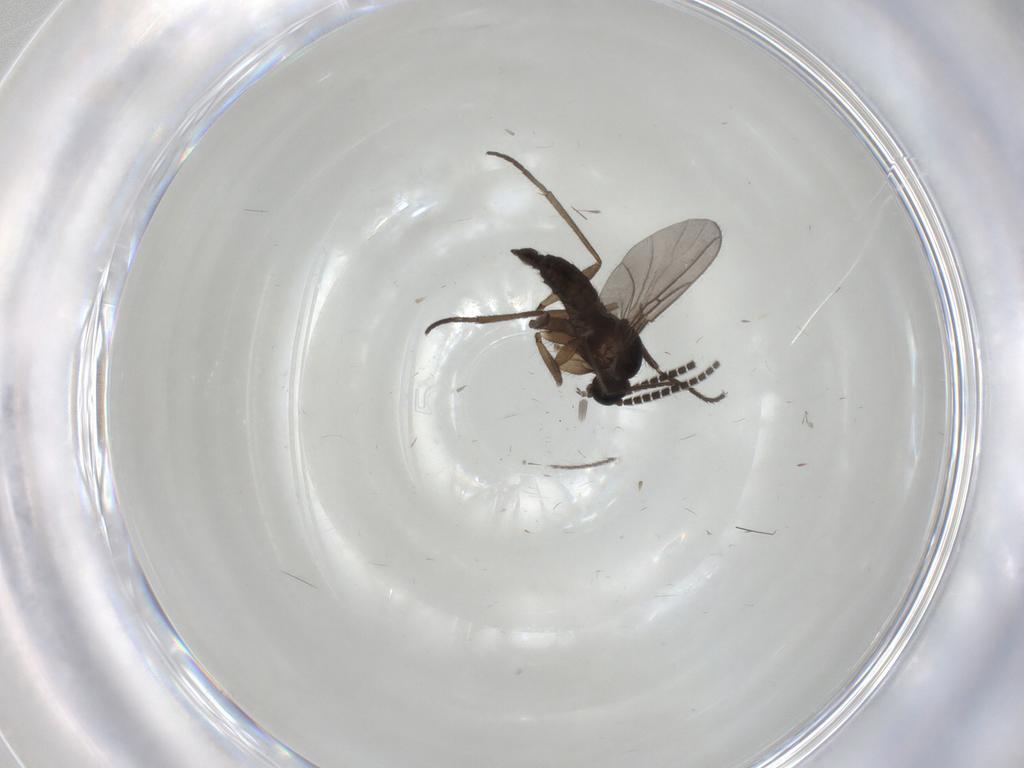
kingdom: Animalia
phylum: Arthropoda
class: Insecta
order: Diptera
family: Sciaridae
